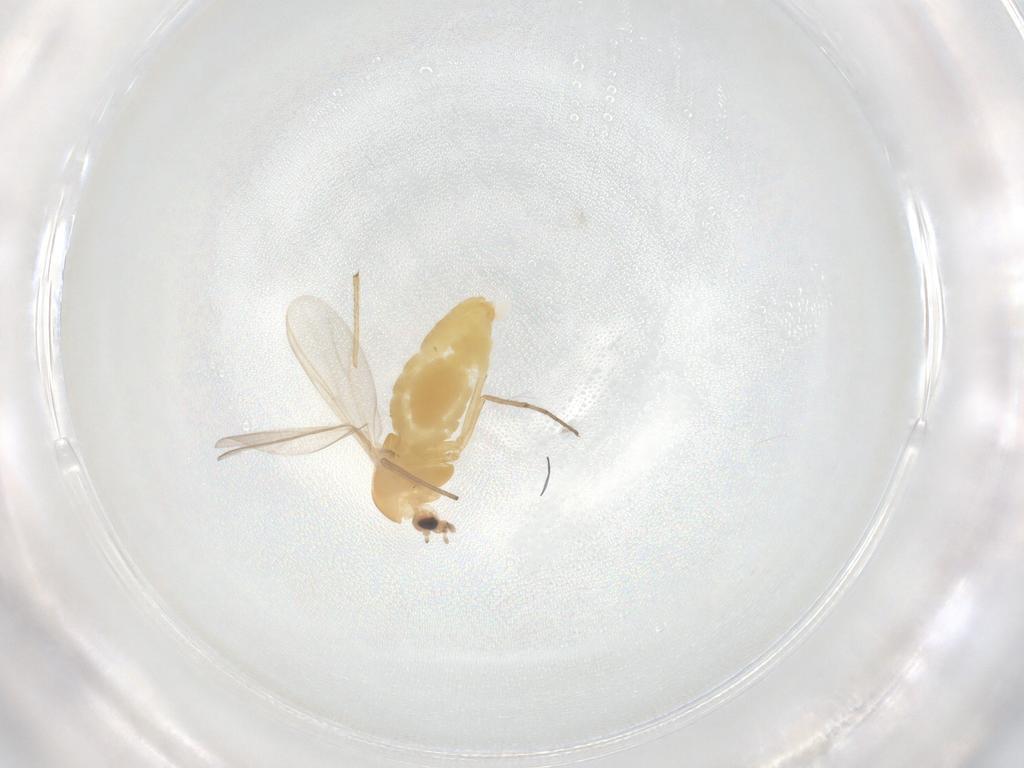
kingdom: Animalia
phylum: Arthropoda
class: Insecta
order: Diptera
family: Chironomidae
